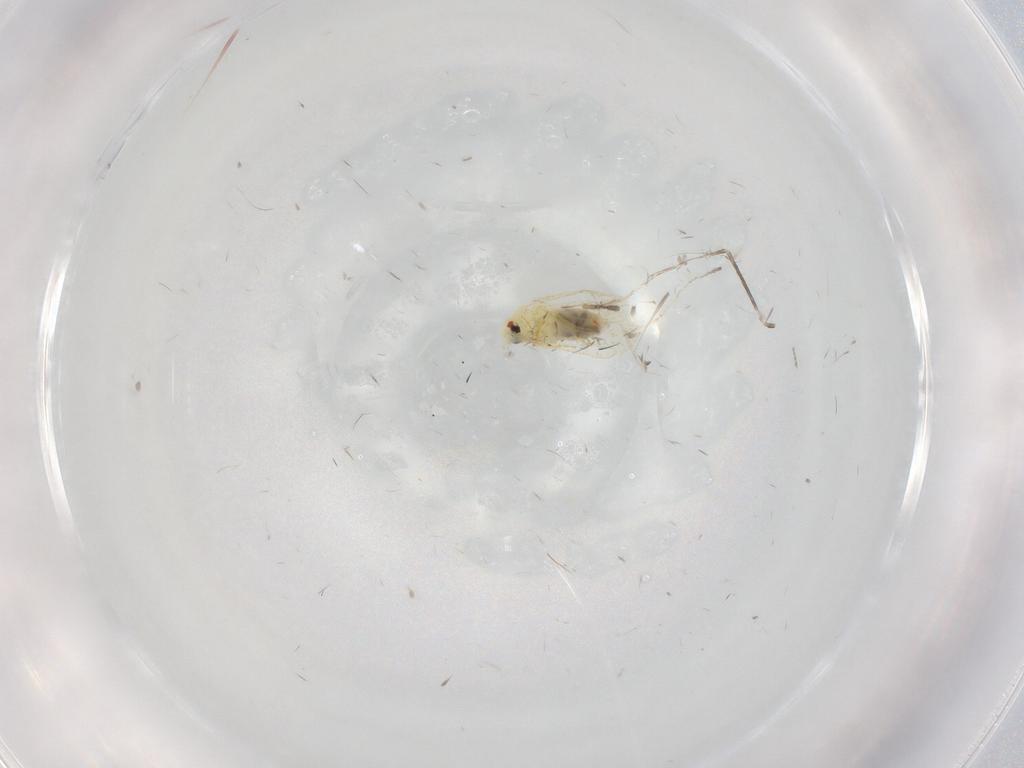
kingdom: Animalia
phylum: Arthropoda
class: Insecta
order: Hemiptera
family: Aleyrodidae
